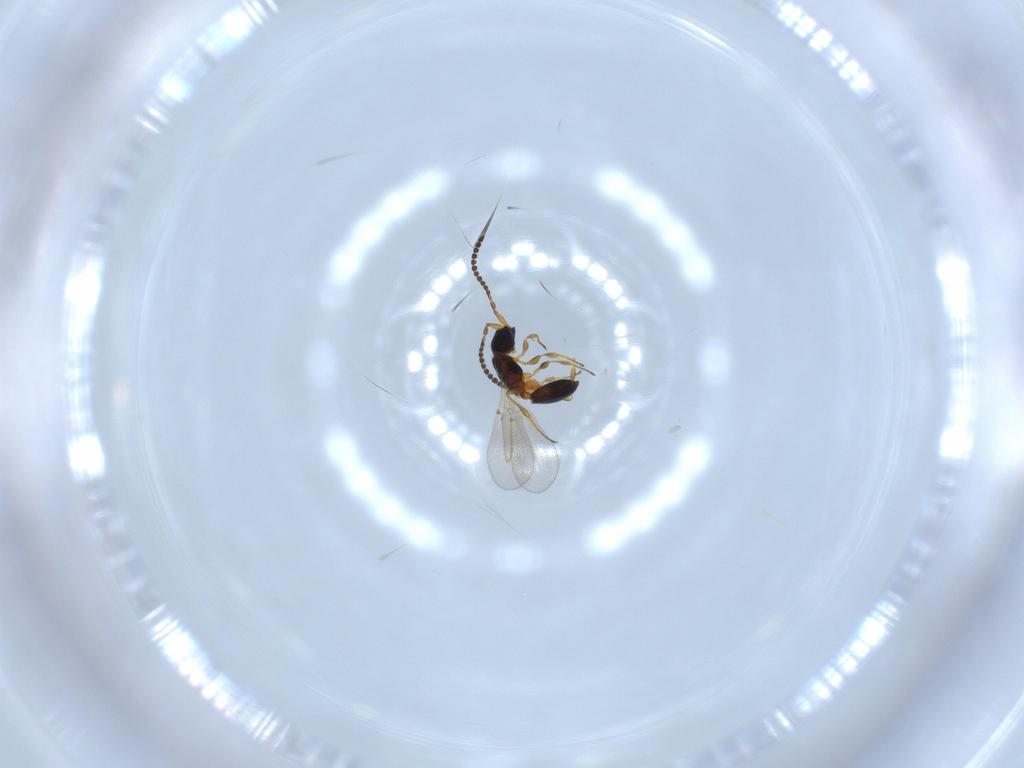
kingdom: Animalia
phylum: Arthropoda
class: Insecta
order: Hymenoptera
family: Diapriidae
